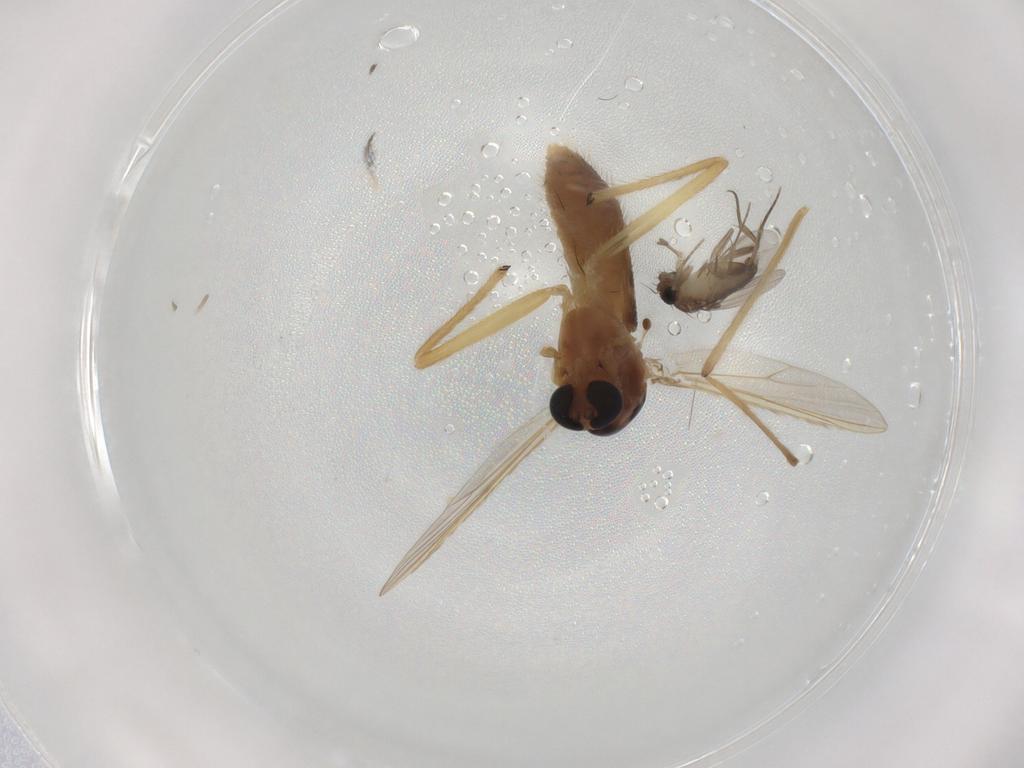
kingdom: Animalia
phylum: Arthropoda
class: Insecta
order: Diptera
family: Chironomidae
